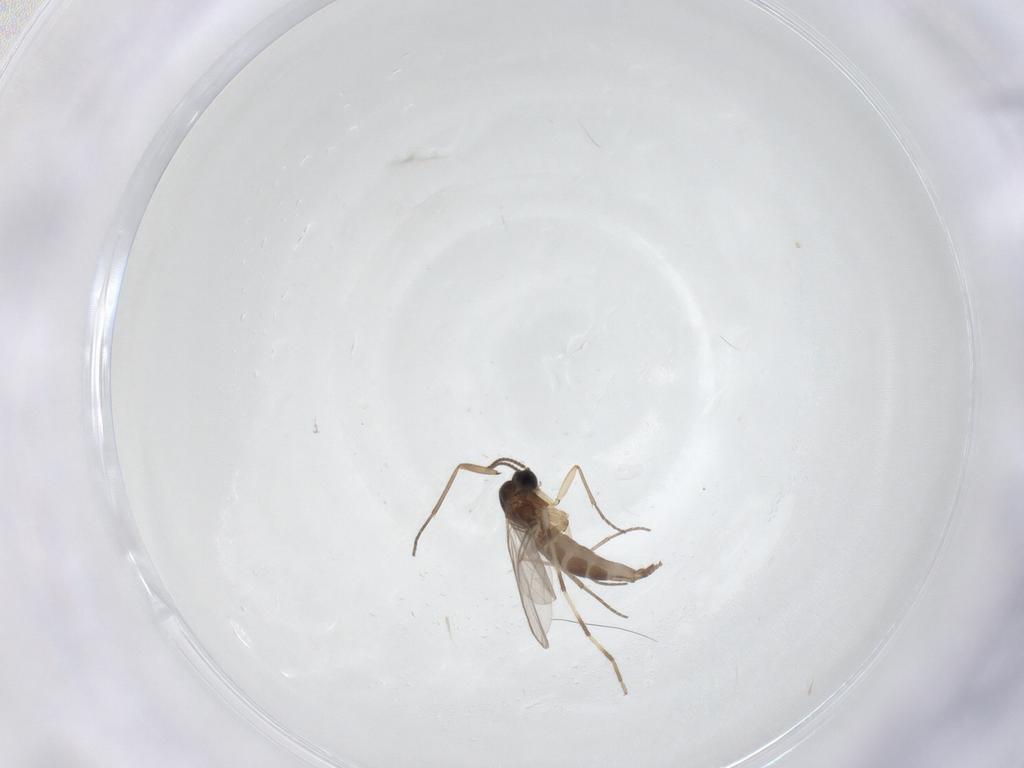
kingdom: Animalia
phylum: Arthropoda
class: Insecta
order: Diptera
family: Sciaridae
